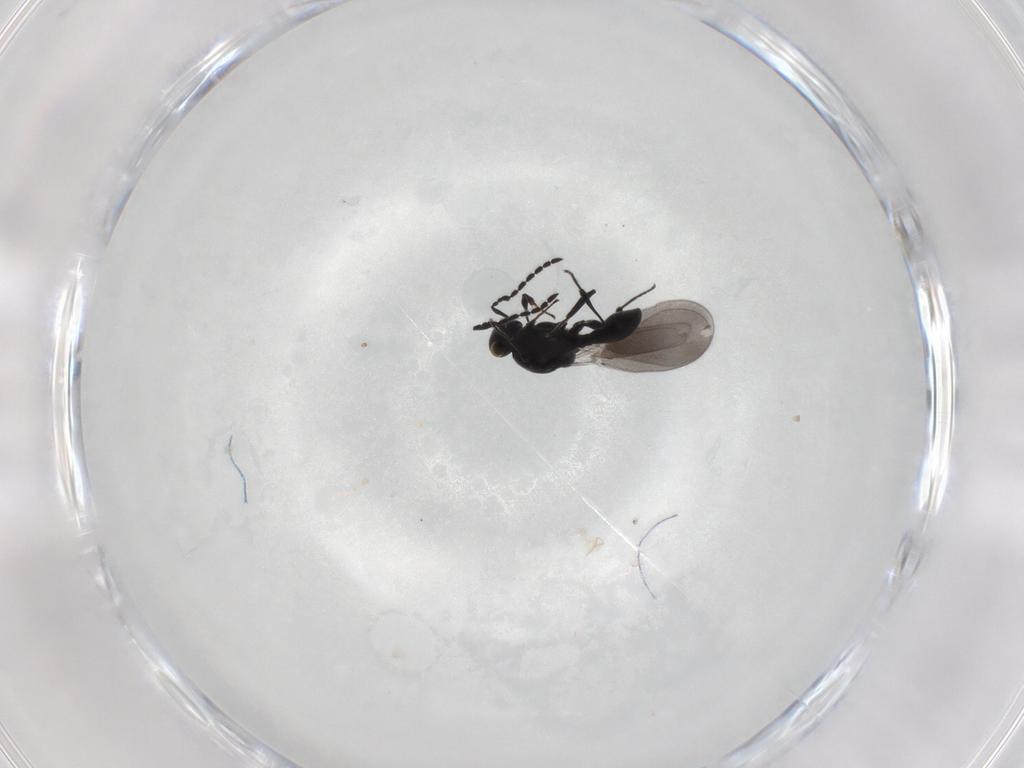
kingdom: Animalia
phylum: Arthropoda
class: Insecta
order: Hymenoptera
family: Platygastridae
